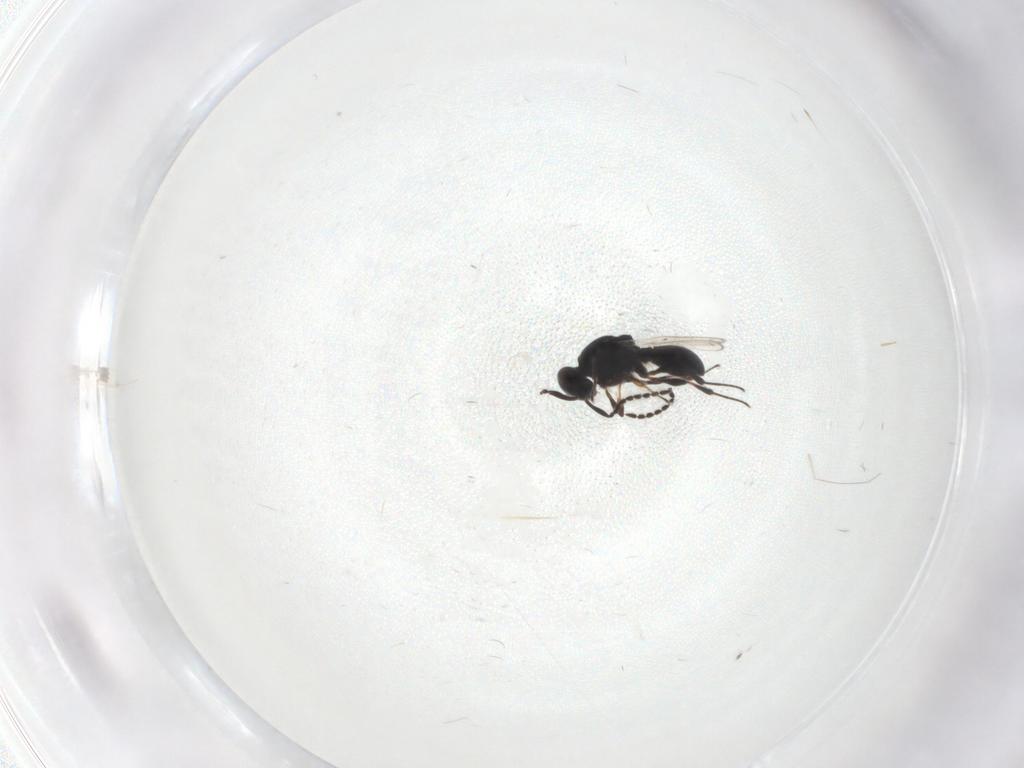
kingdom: Animalia
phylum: Arthropoda
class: Insecta
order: Hymenoptera
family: Platygastridae
